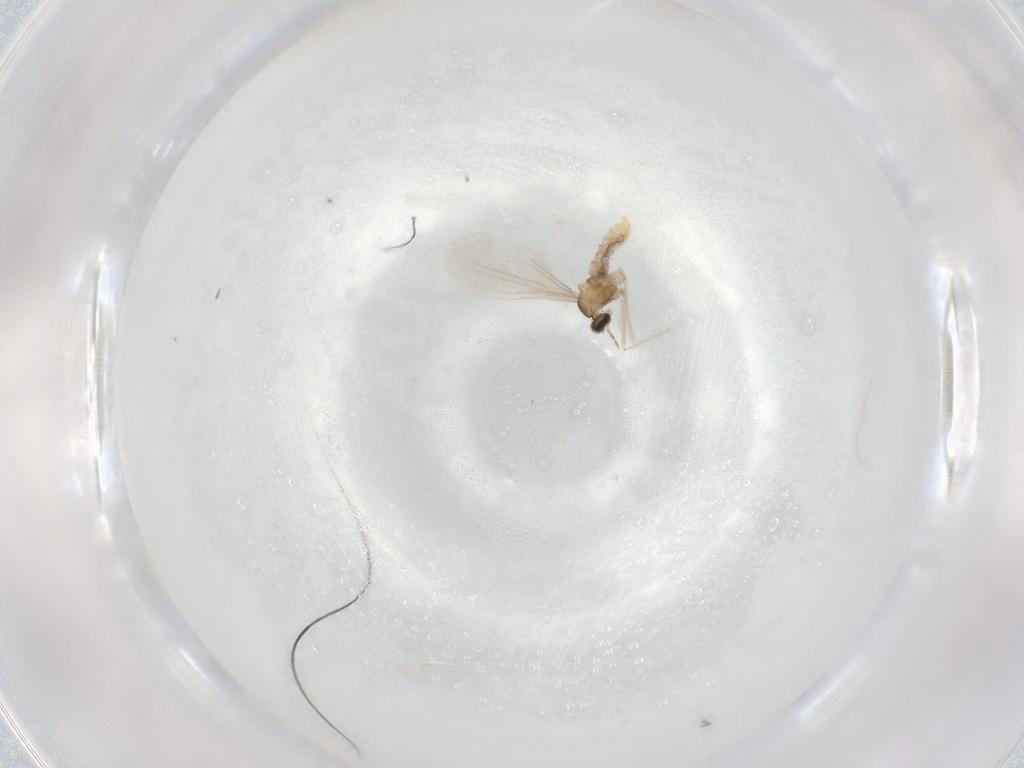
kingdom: Animalia
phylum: Arthropoda
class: Insecta
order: Diptera
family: Cecidomyiidae
